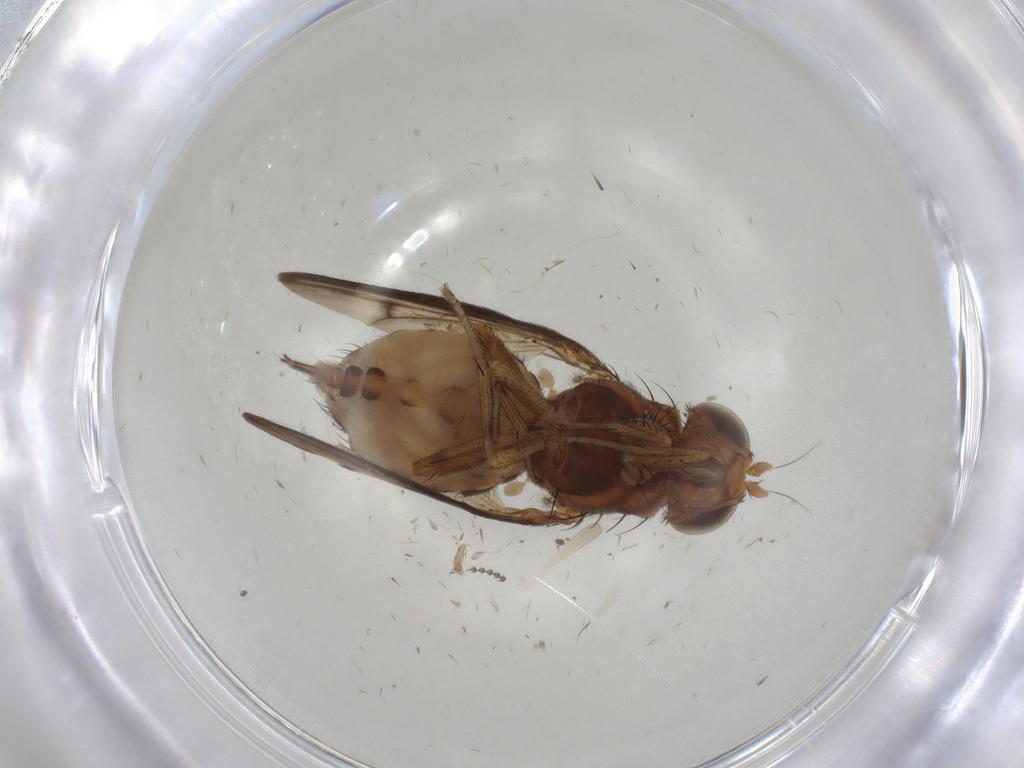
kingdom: Animalia
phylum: Arthropoda
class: Insecta
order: Diptera
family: Lauxaniidae
